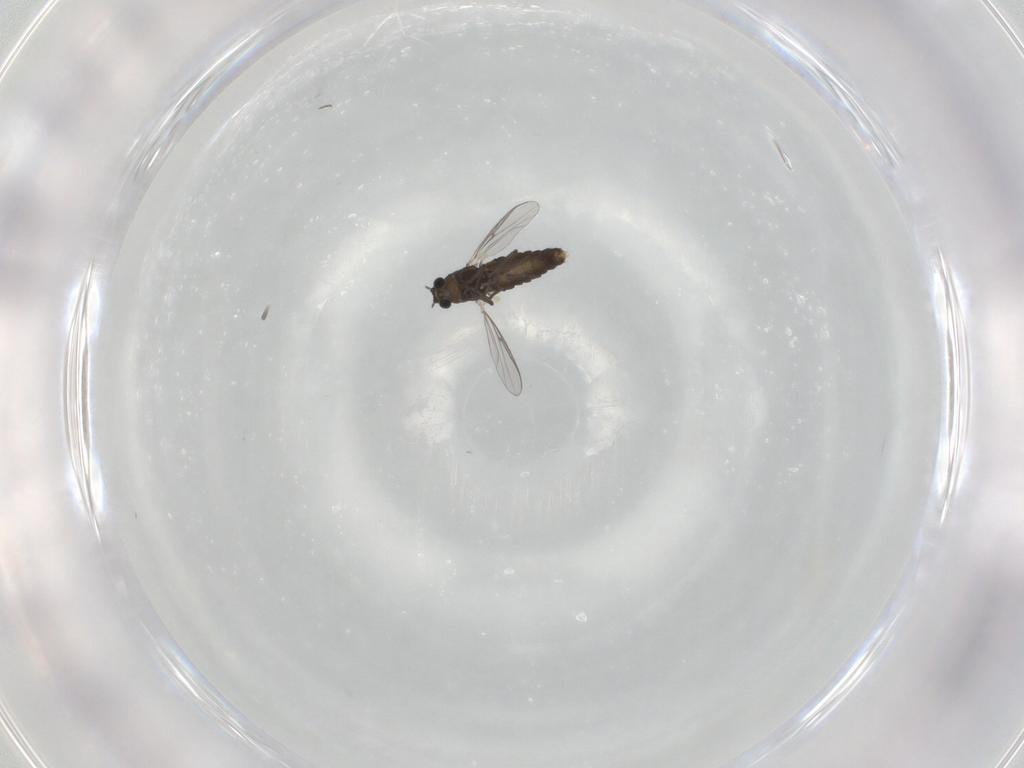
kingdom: Animalia
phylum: Arthropoda
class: Insecta
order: Diptera
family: Chironomidae
